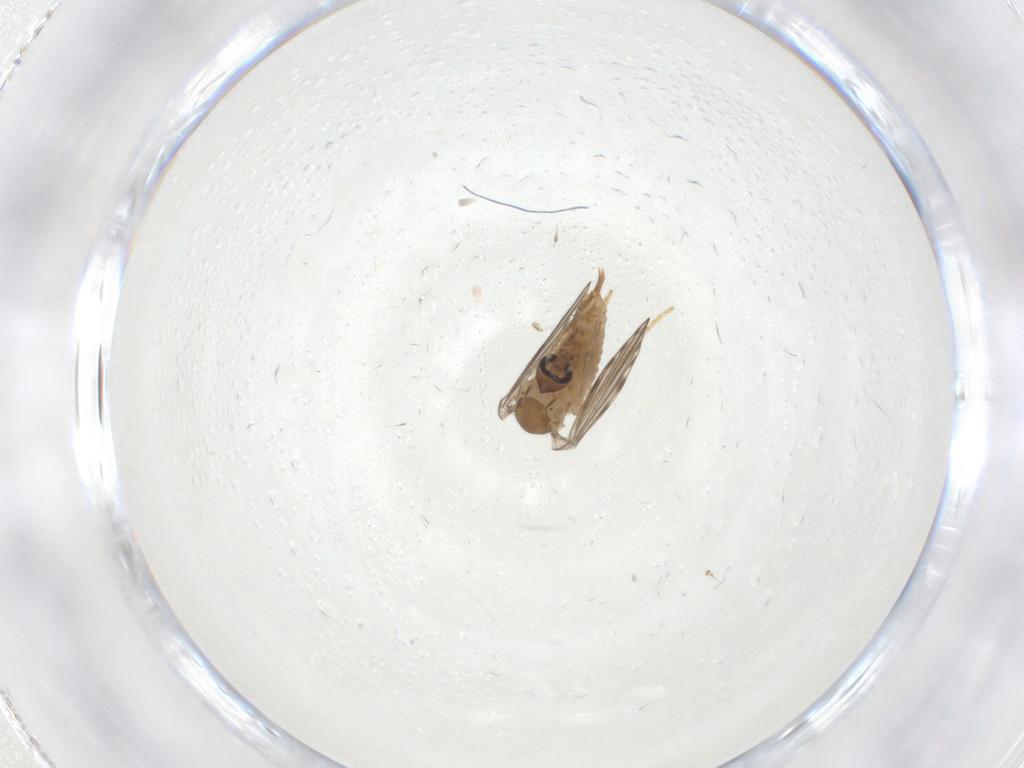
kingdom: Animalia
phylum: Arthropoda
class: Insecta
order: Diptera
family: Psychodidae
